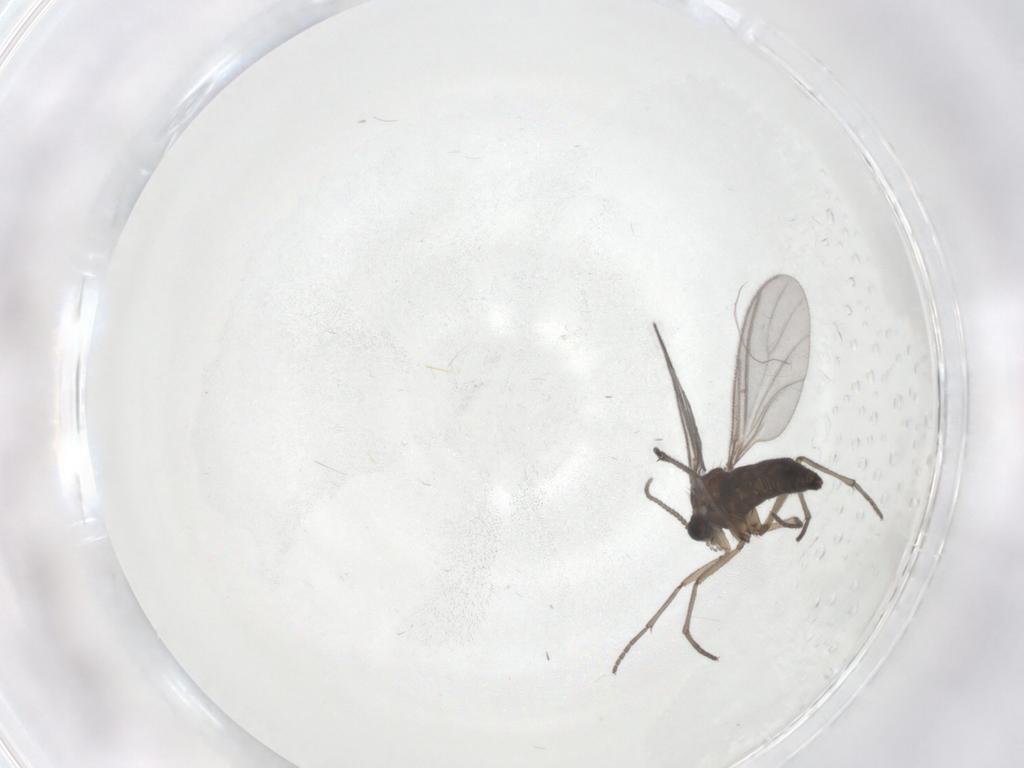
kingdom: Animalia
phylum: Arthropoda
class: Insecta
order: Diptera
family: Sciaridae
